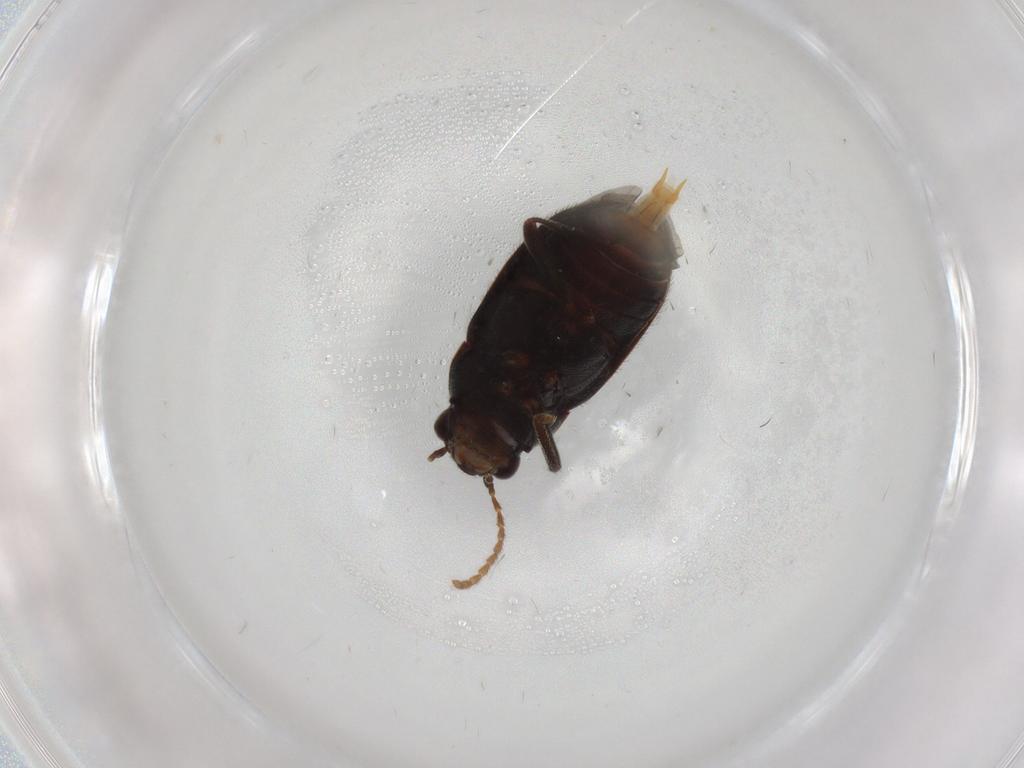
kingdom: Animalia
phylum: Arthropoda
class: Insecta
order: Coleoptera
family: Ptilodactylidae
